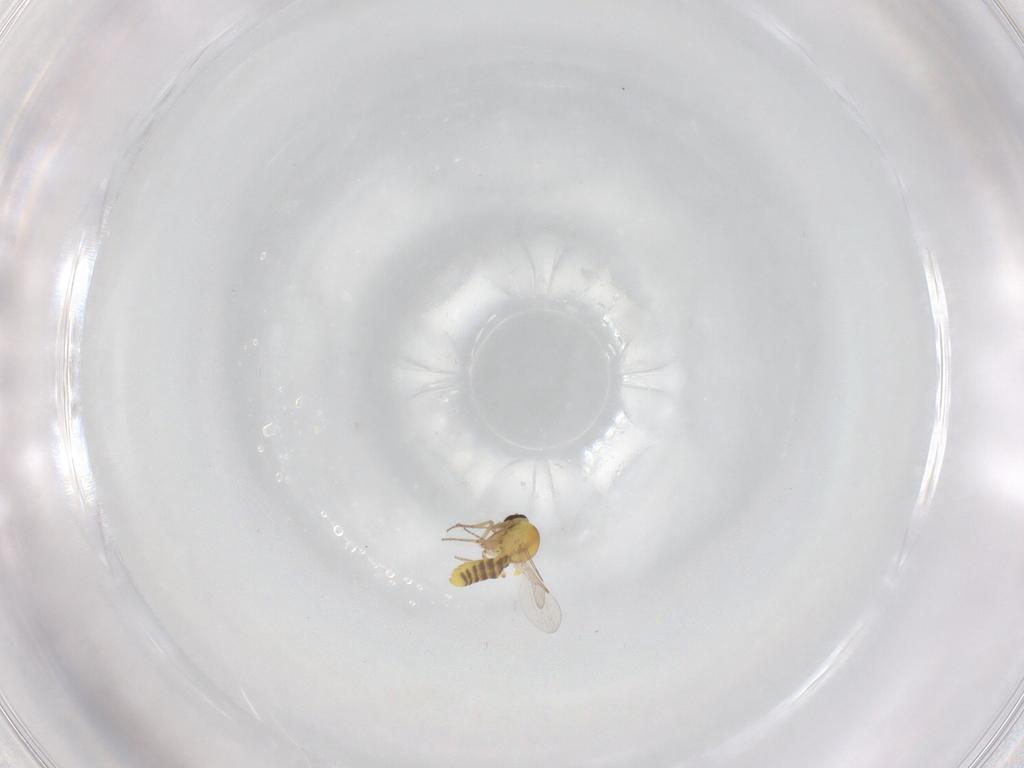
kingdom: Animalia
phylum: Arthropoda
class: Insecta
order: Diptera
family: Ceratopogonidae
